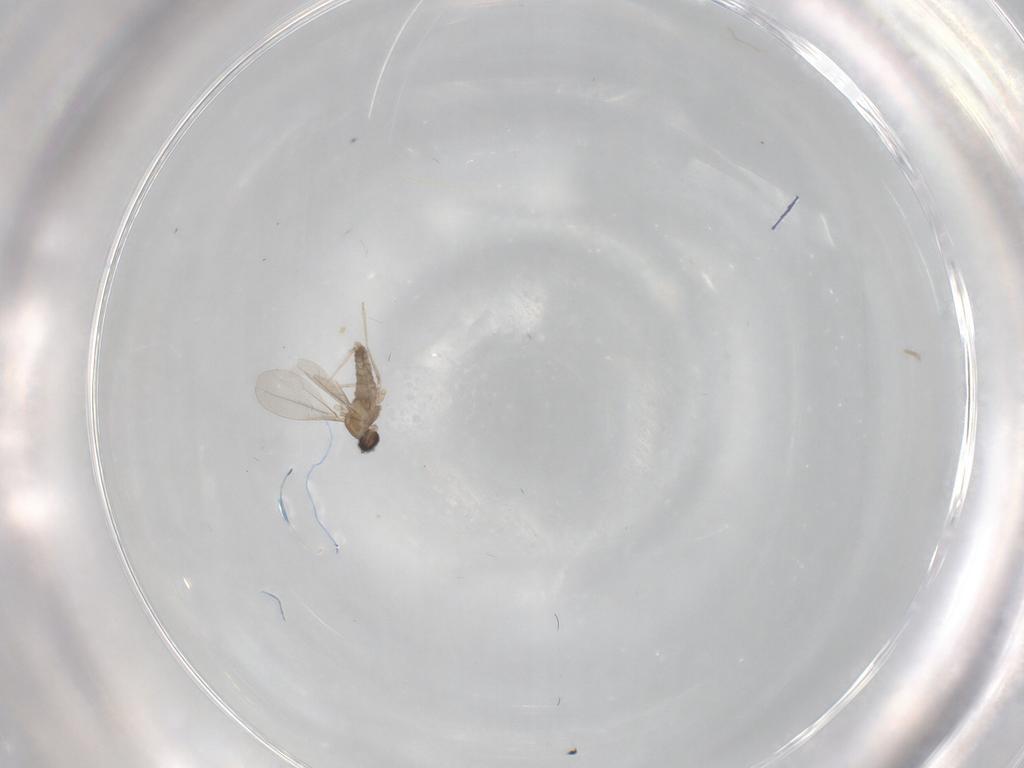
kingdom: Animalia
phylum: Arthropoda
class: Insecta
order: Diptera
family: Cecidomyiidae
